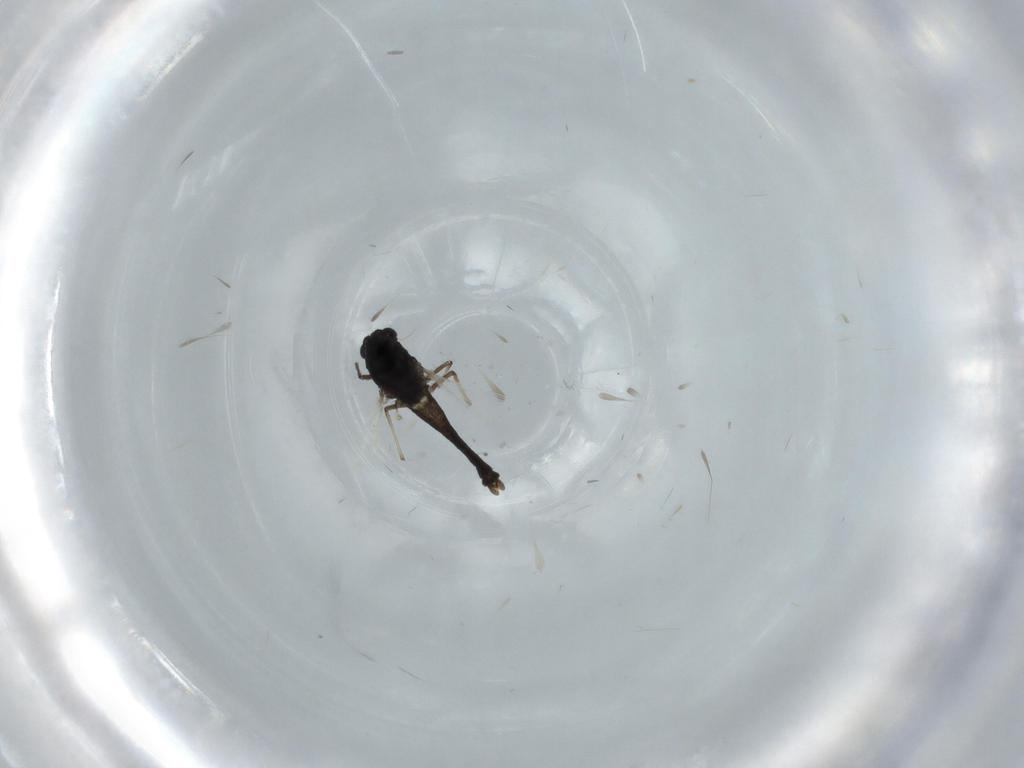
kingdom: Animalia
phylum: Arthropoda
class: Insecta
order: Diptera
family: Chironomidae
